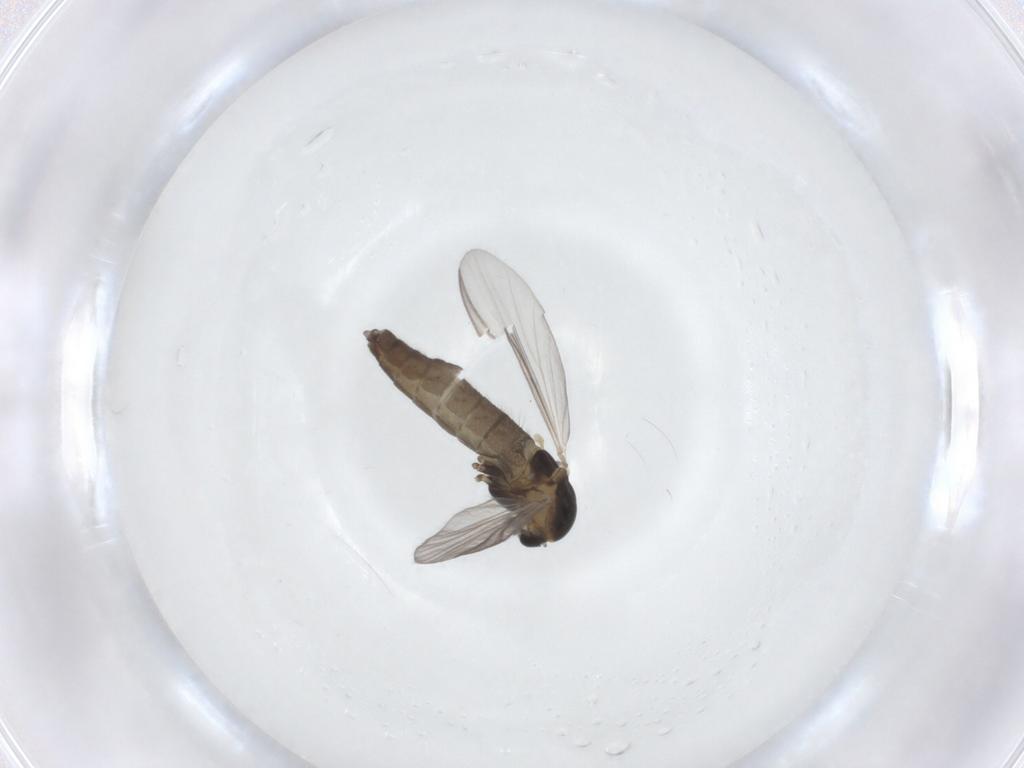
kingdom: Animalia
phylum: Arthropoda
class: Insecta
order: Diptera
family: Chironomidae
